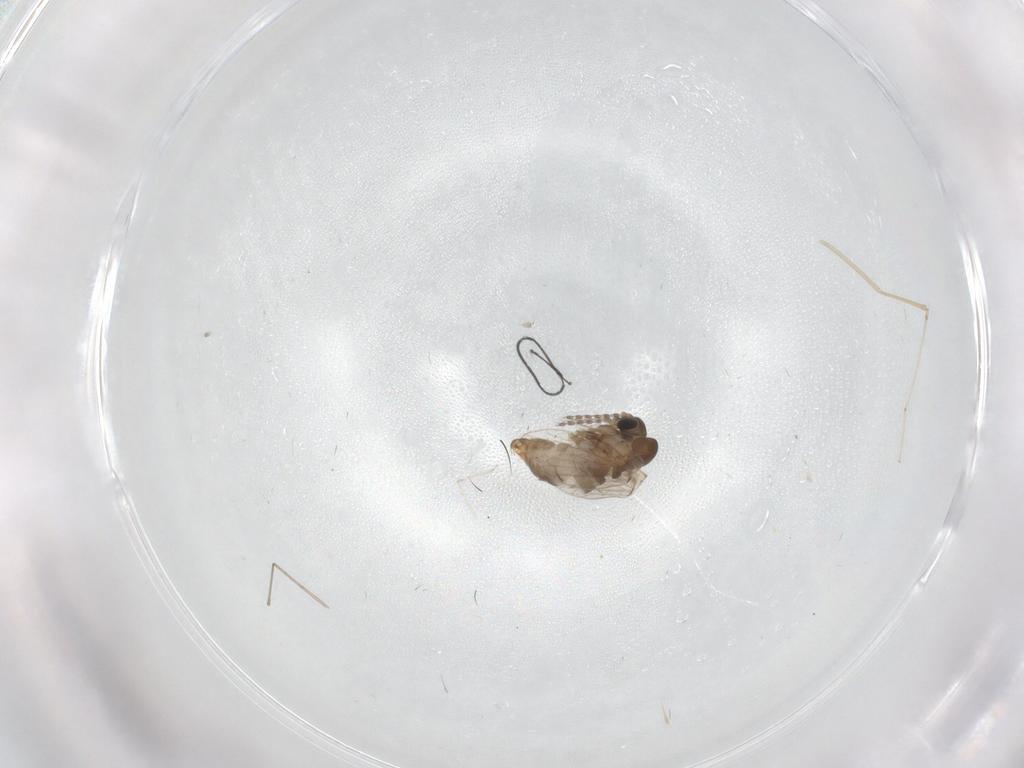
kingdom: Animalia
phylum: Arthropoda
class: Insecta
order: Diptera
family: Cecidomyiidae
